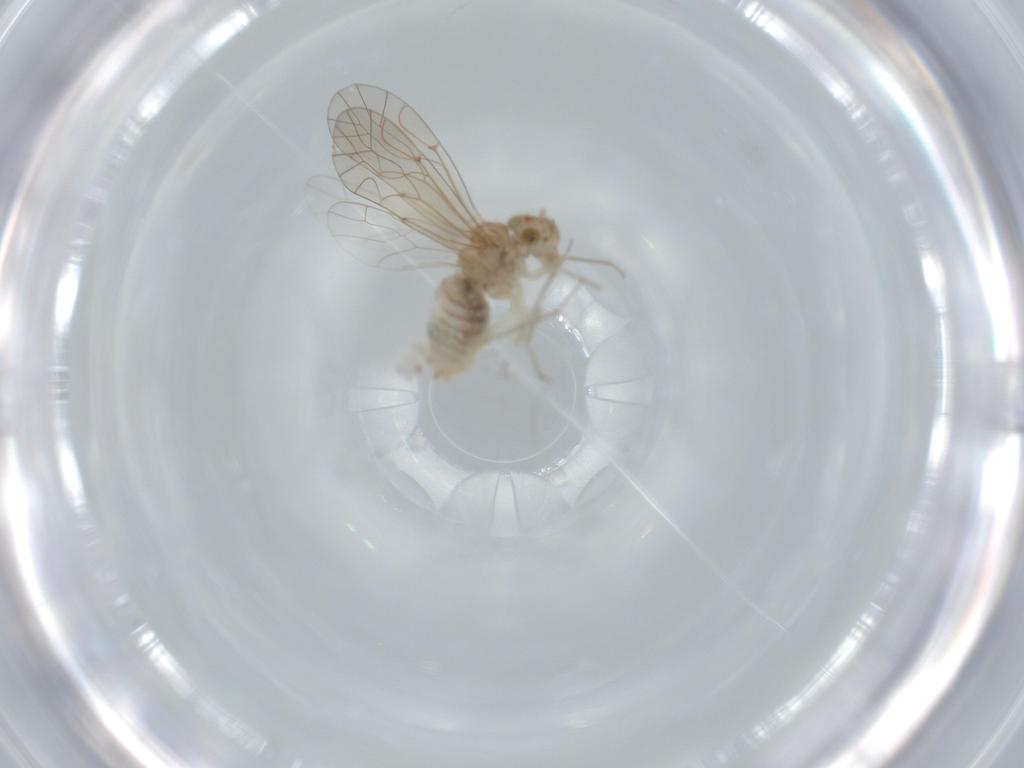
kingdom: Animalia
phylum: Arthropoda
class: Insecta
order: Psocodea
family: Lachesillidae
